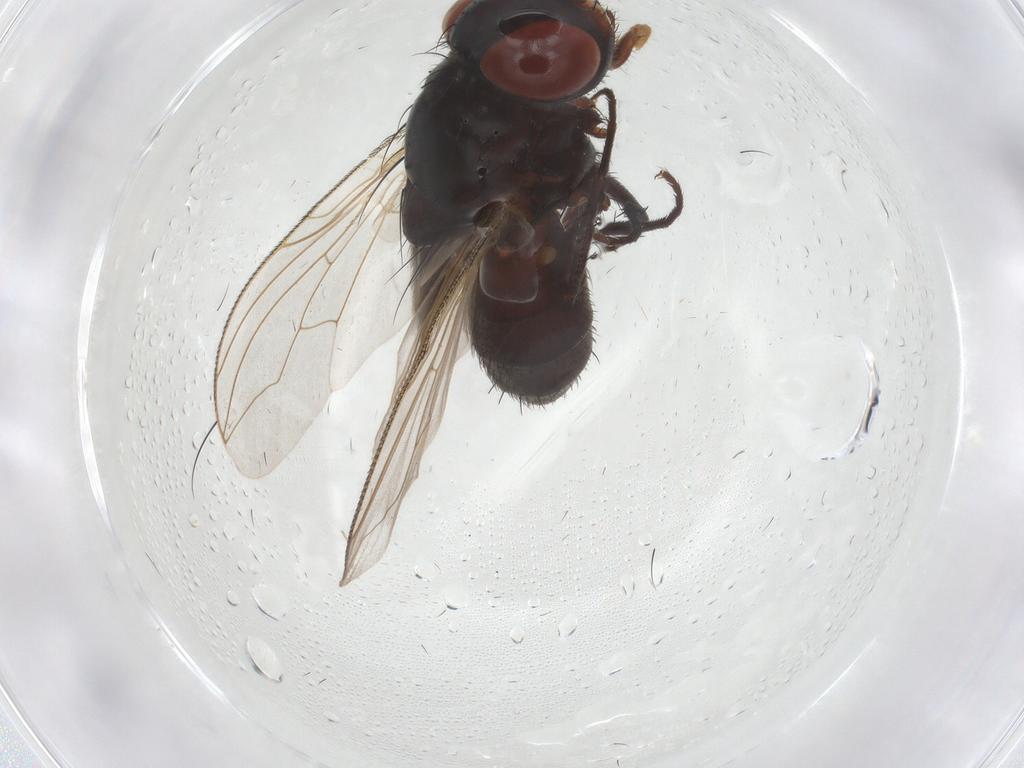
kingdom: Animalia
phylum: Arthropoda
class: Insecta
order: Diptera
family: Sarcophagidae
